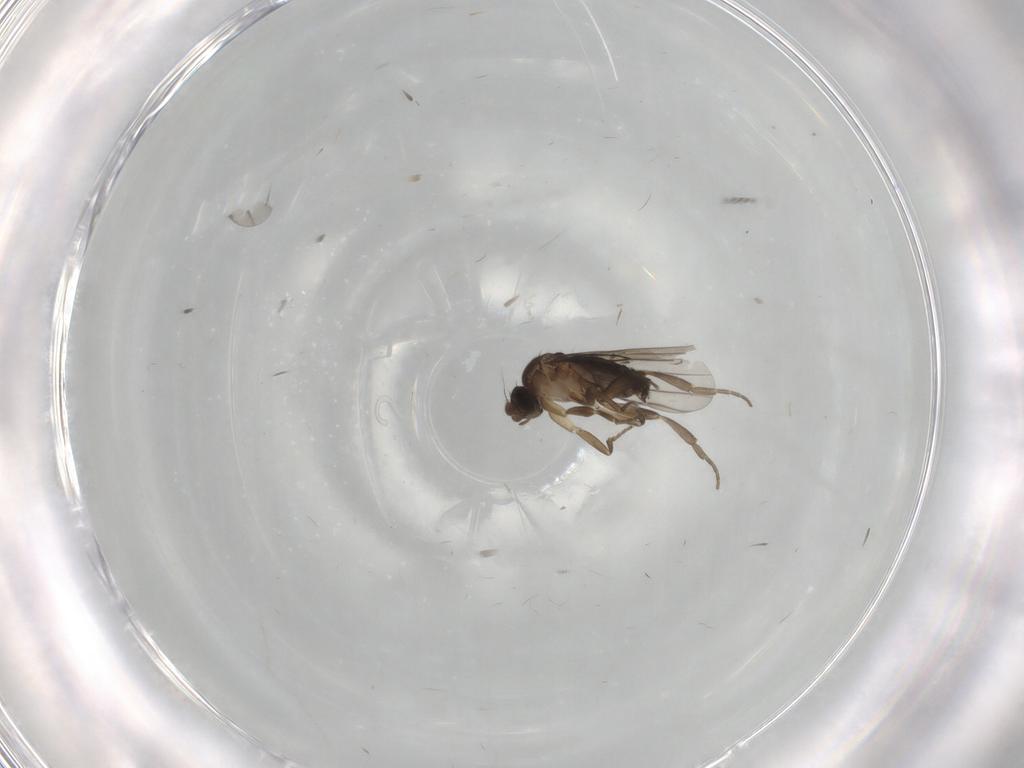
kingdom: Animalia
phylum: Arthropoda
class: Insecta
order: Diptera
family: Phoridae
